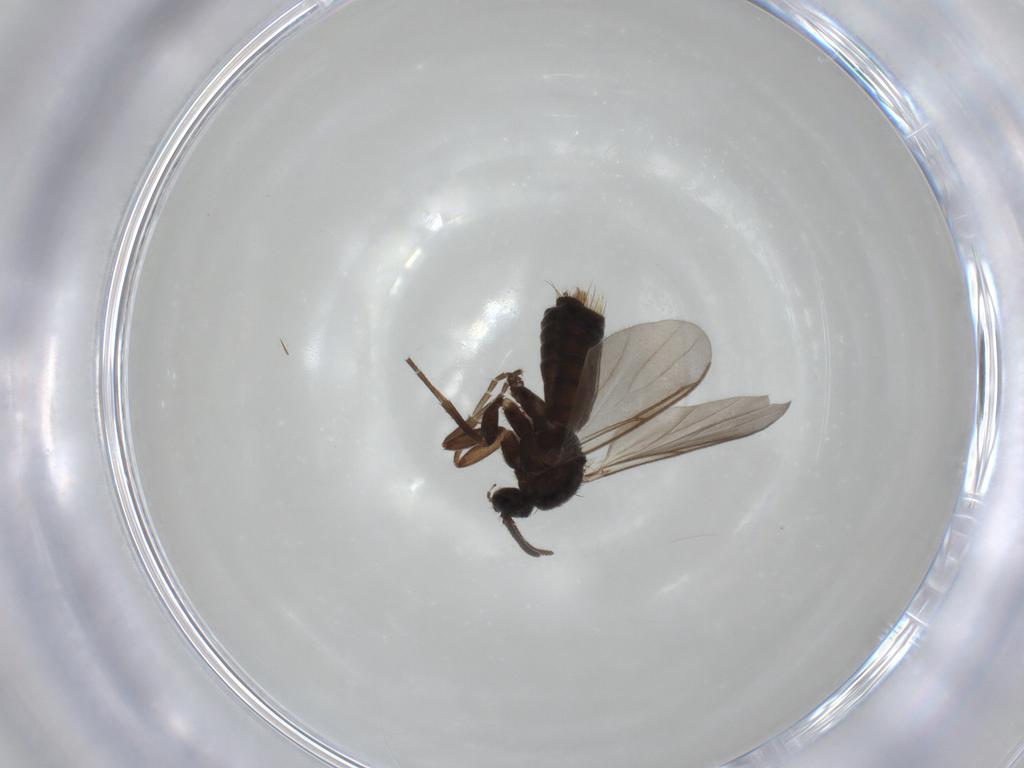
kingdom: Animalia
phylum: Arthropoda
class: Insecta
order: Diptera
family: Mycetophilidae
